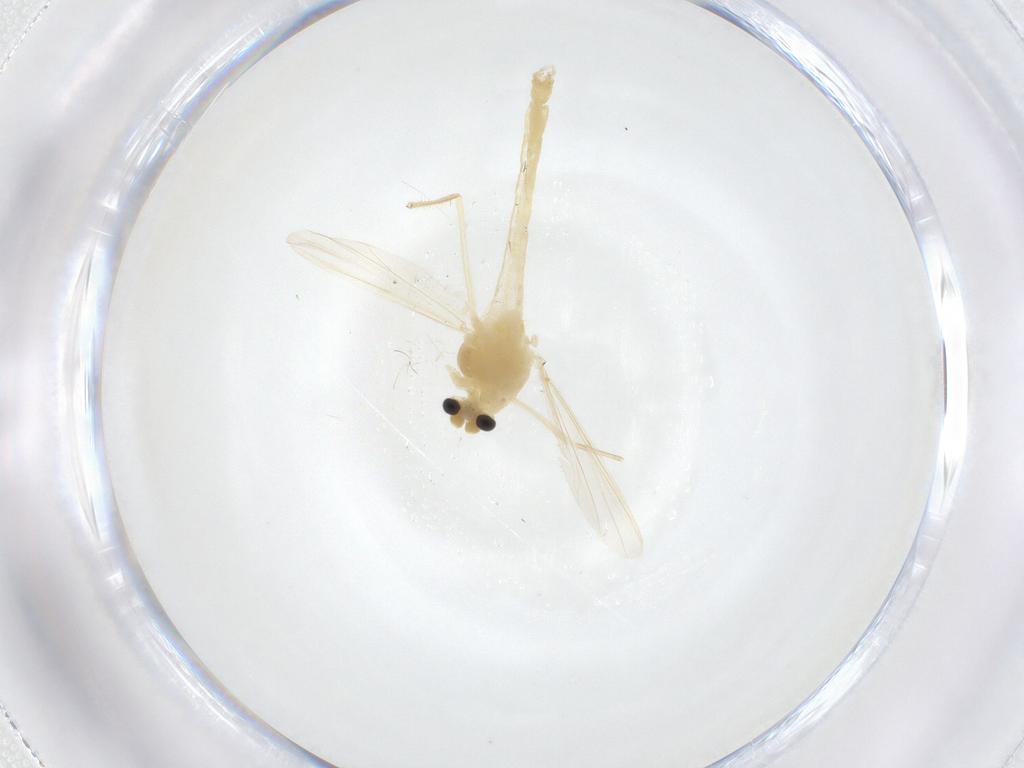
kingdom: Animalia
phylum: Arthropoda
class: Insecta
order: Diptera
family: Chironomidae
